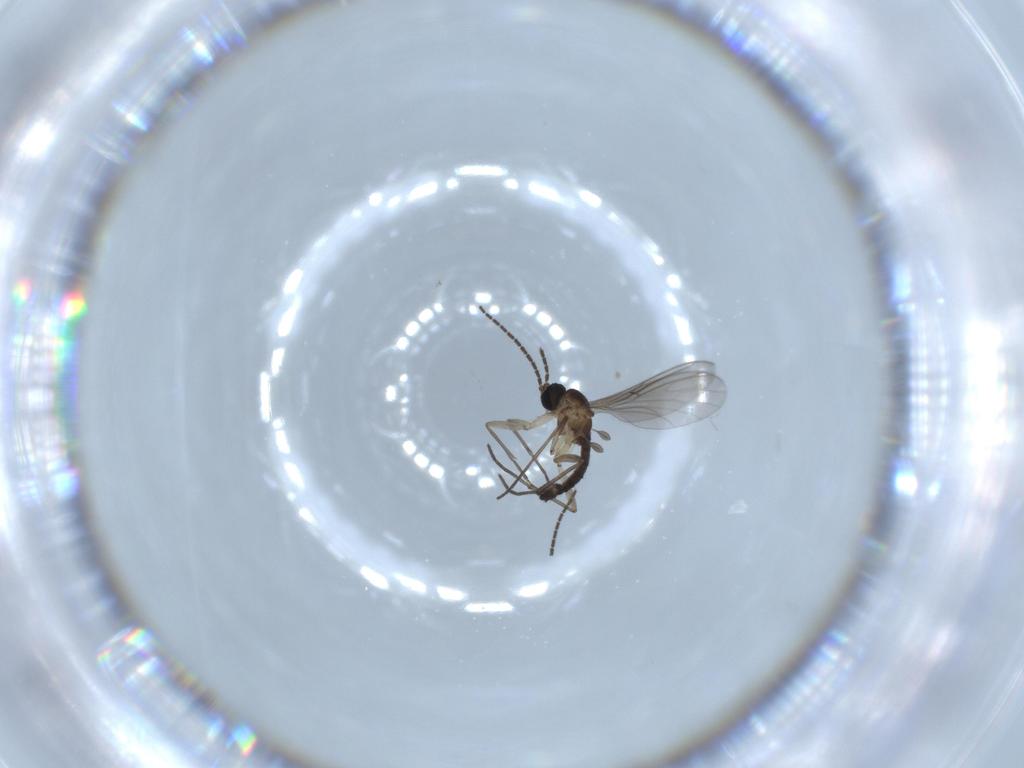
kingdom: Animalia
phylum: Arthropoda
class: Insecta
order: Diptera
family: Sciaridae
